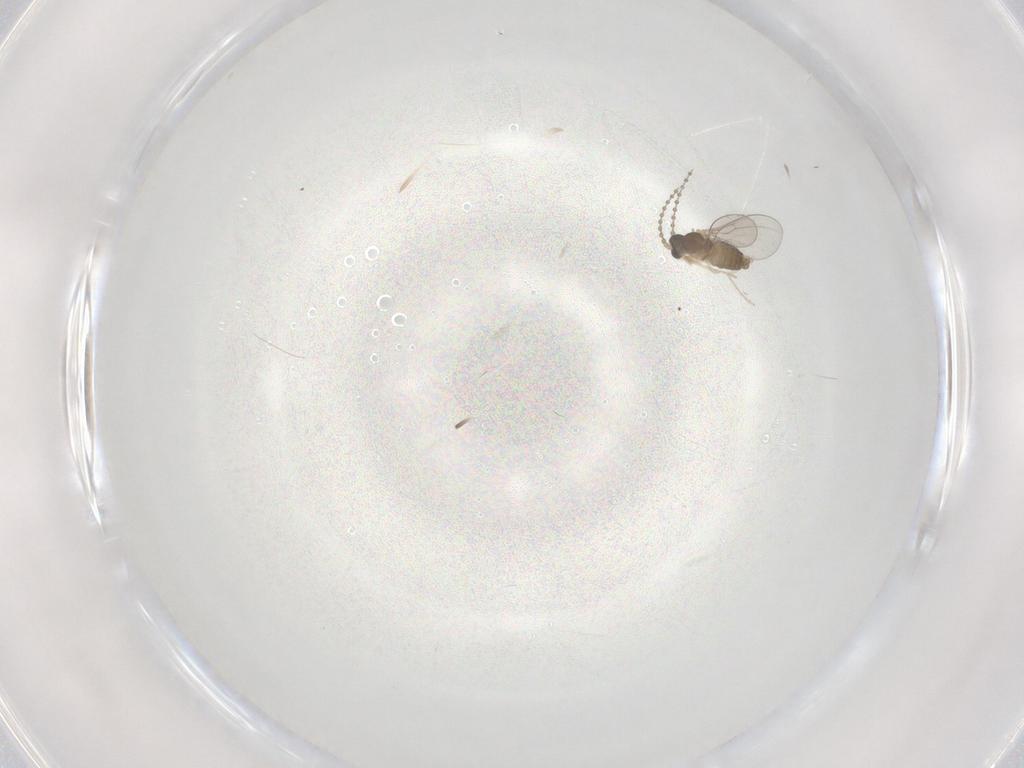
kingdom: Animalia
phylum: Arthropoda
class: Insecta
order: Diptera
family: Cecidomyiidae
